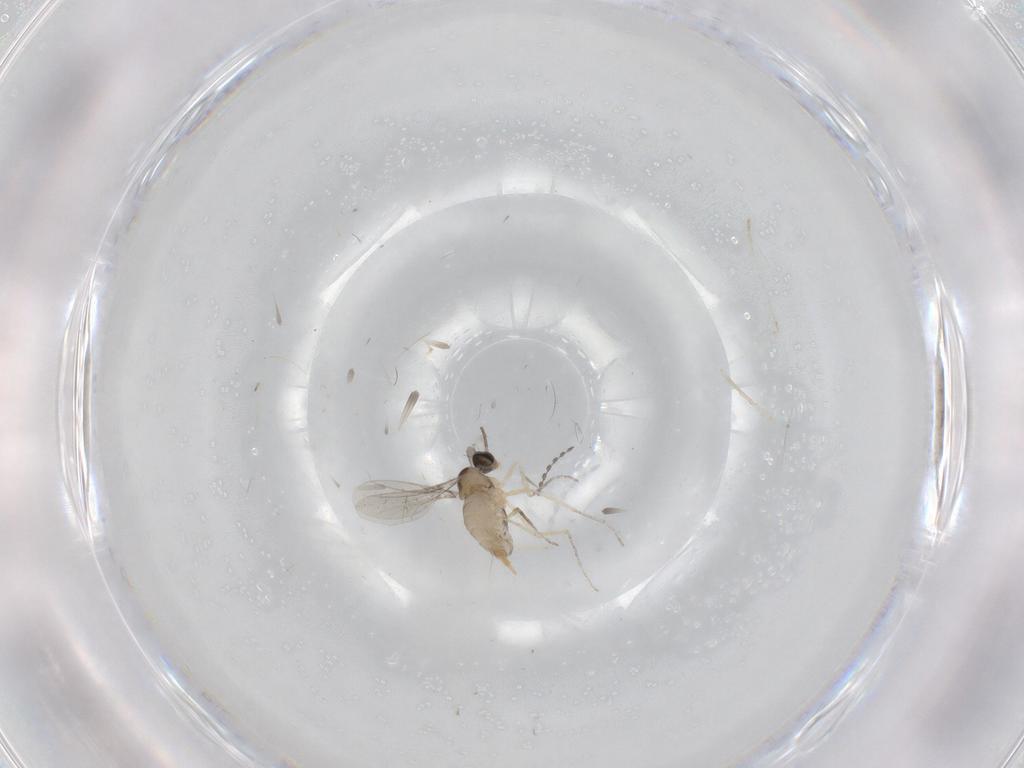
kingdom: Animalia
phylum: Arthropoda
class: Insecta
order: Diptera
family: Cecidomyiidae
